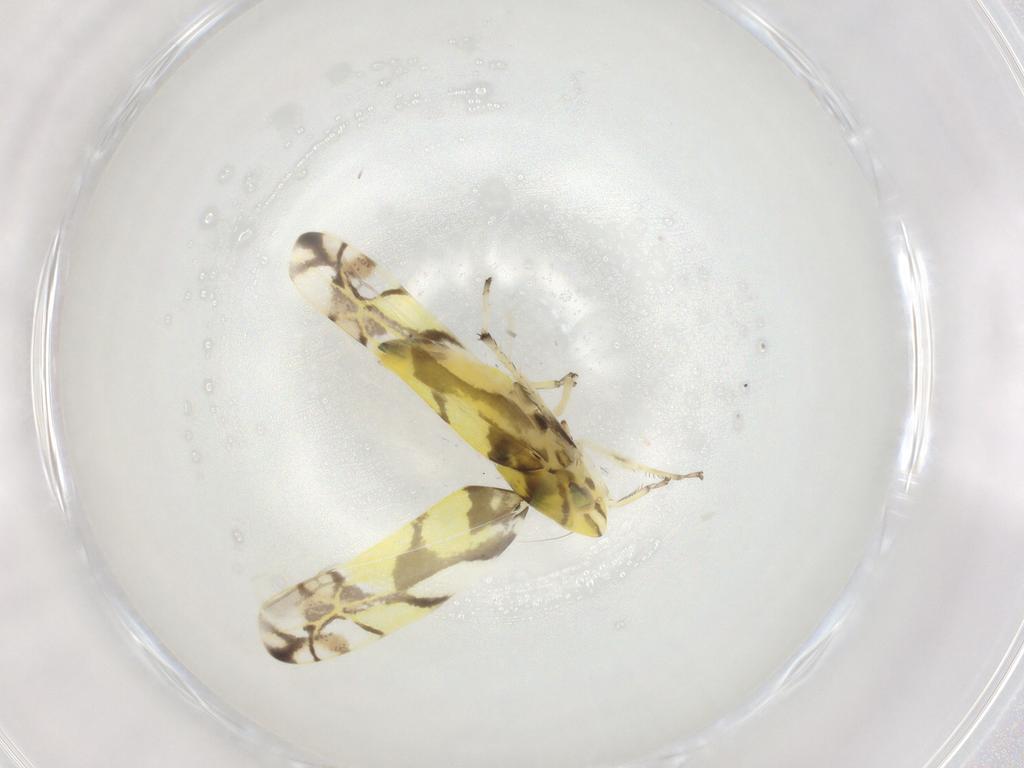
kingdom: Animalia
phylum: Arthropoda
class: Insecta
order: Hemiptera
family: Cicadellidae
